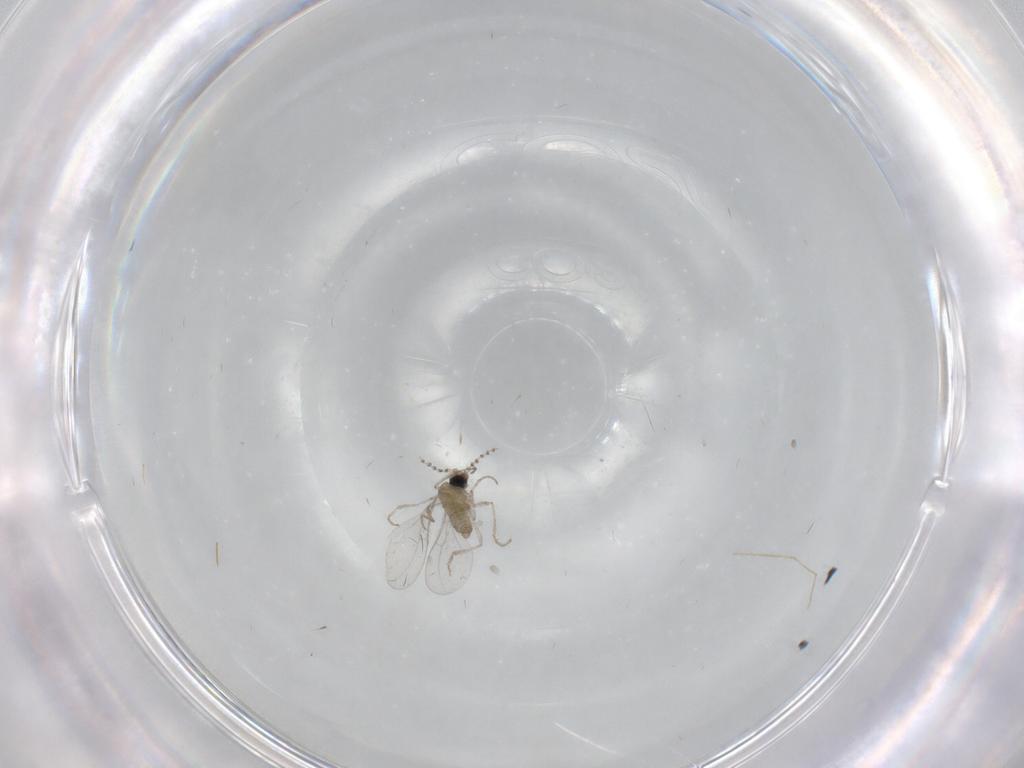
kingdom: Animalia
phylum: Arthropoda
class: Insecta
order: Diptera
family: Cecidomyiidae
